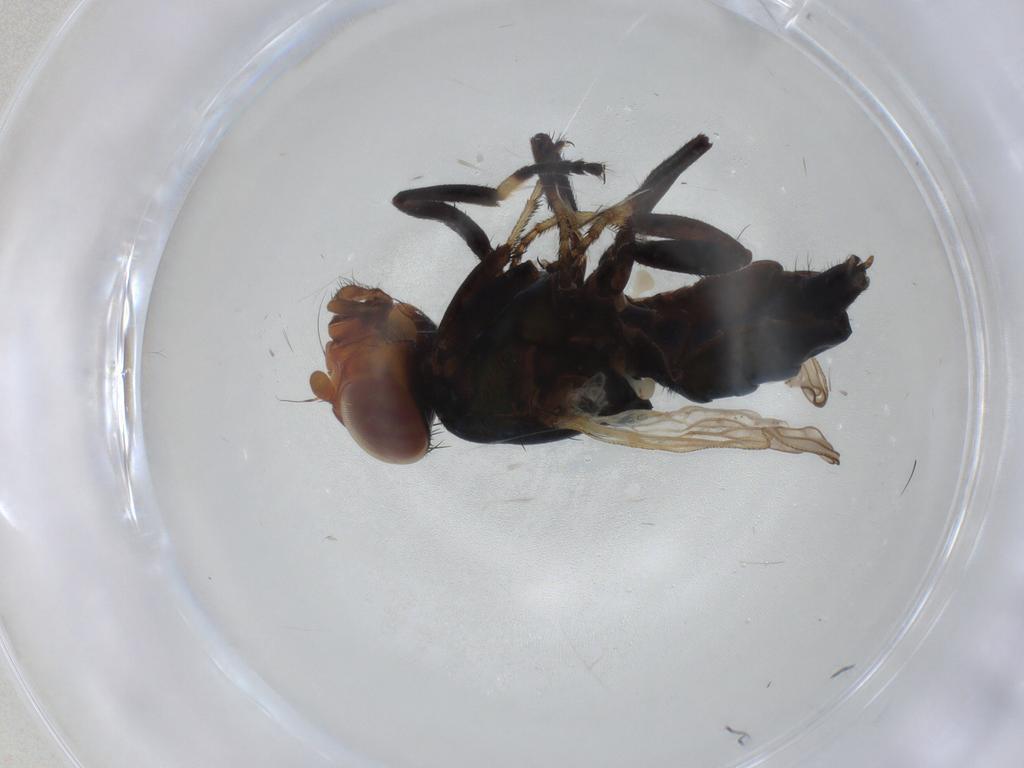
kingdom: Animalia
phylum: Arthropoda
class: Insecta
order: Diptera
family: Ulidiidae
